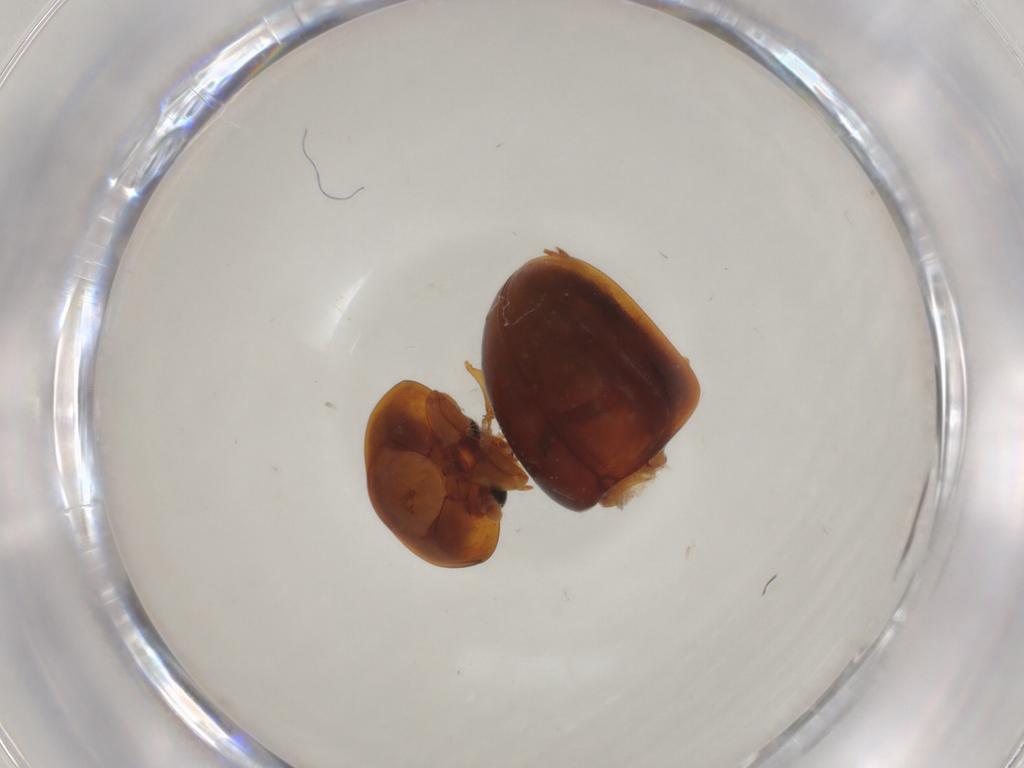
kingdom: Animalia
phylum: Arthropoda
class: Insecta
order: Coleoptera
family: Phalacridae
